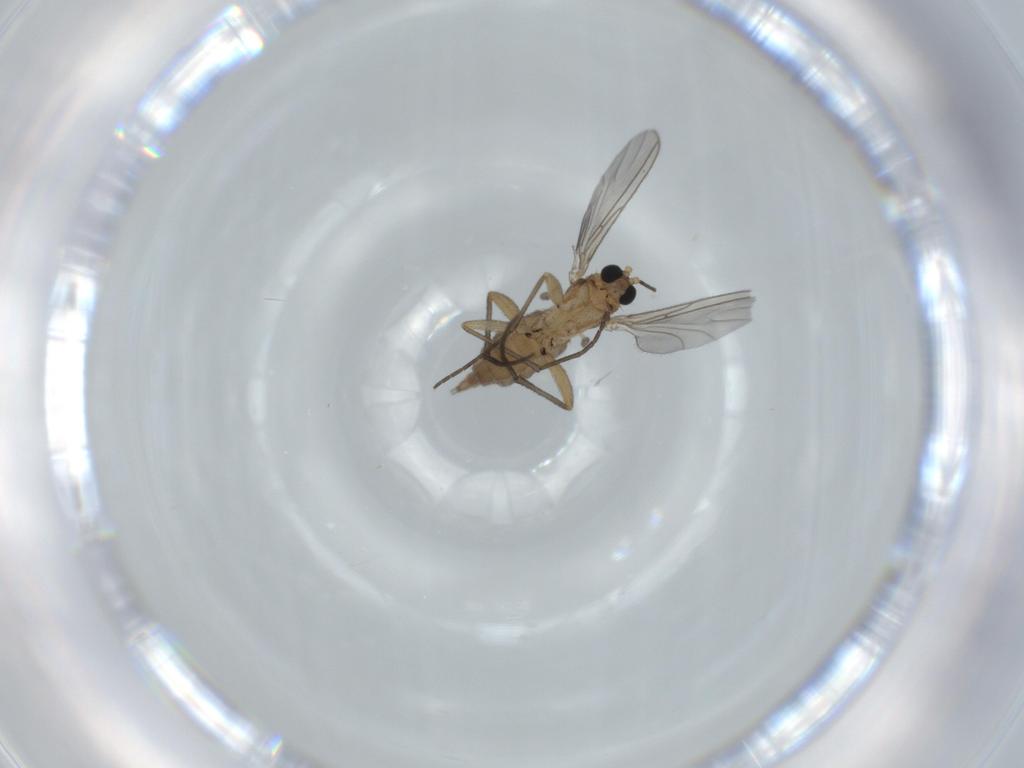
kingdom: Animalia
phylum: Arthropoda
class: Insecta
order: Diptera
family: Sciaridae
